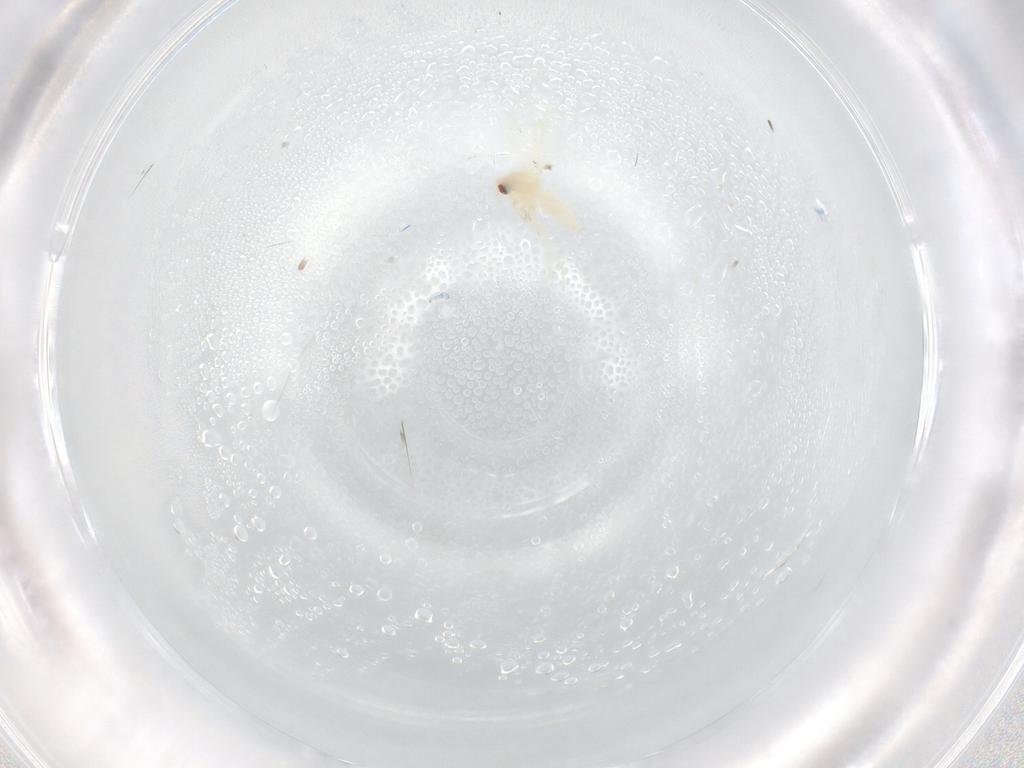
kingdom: Animalia
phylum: Arthropoda
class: Insecta
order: Hemiptera
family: Aleyrodidae
